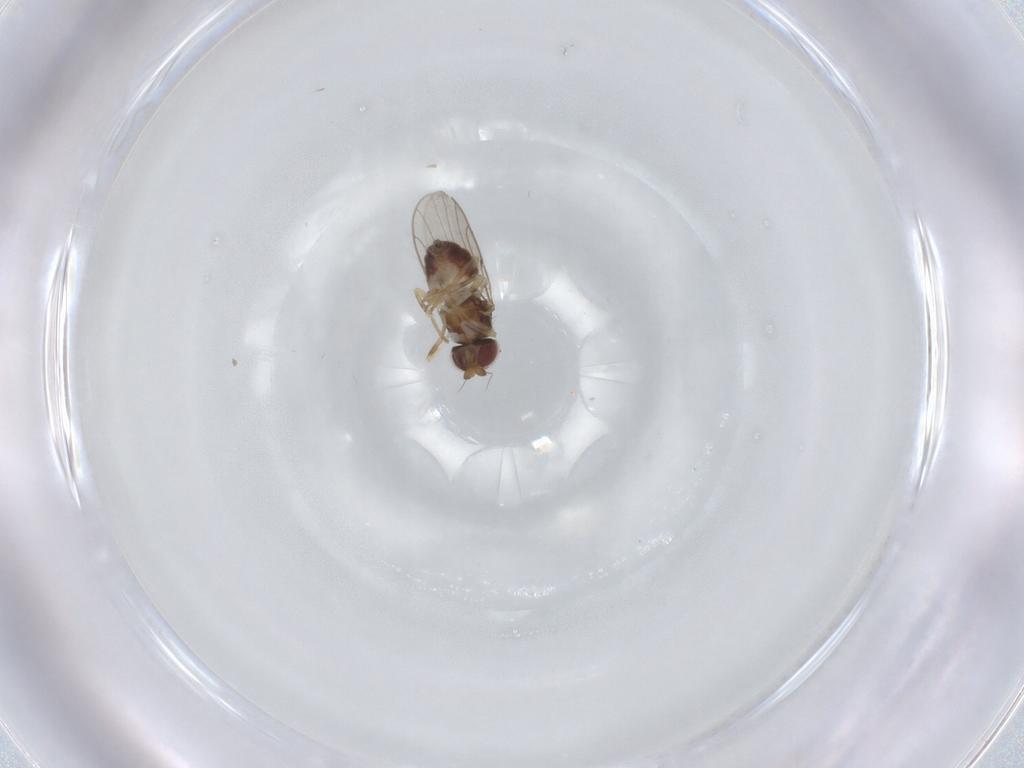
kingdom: Animalia
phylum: Arthropoda
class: Insecta
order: Diptera
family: Chloropidae
